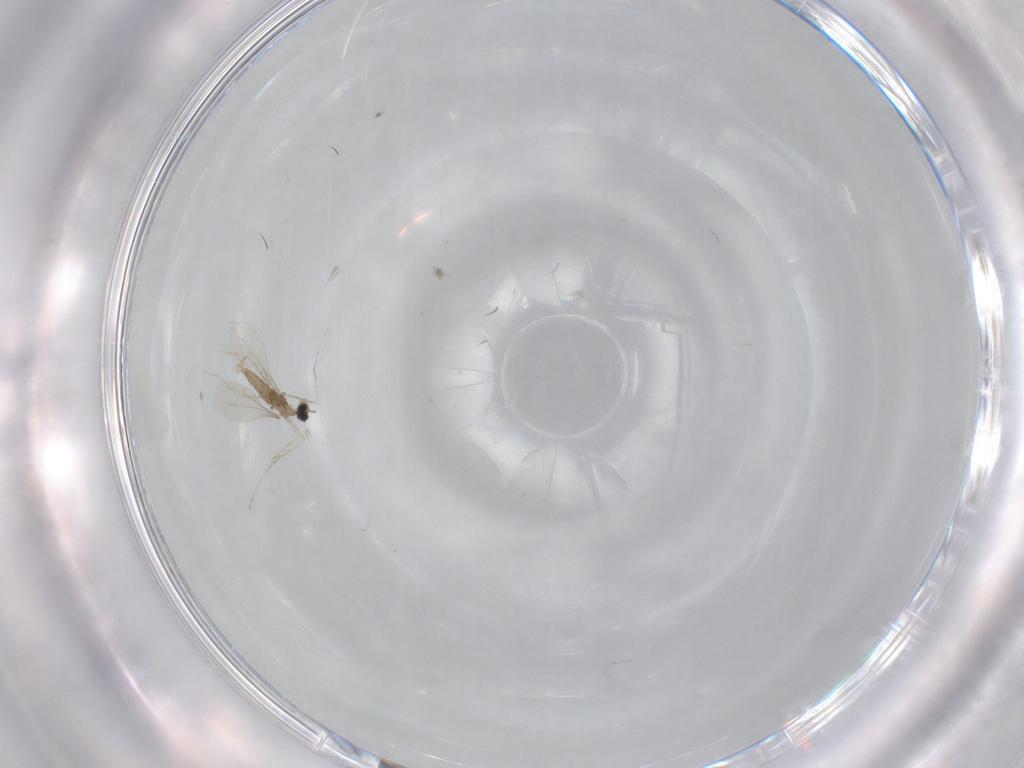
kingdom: Animalia
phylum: Arthropoda
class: Insecta
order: Diptera
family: Cecidomyiidae
